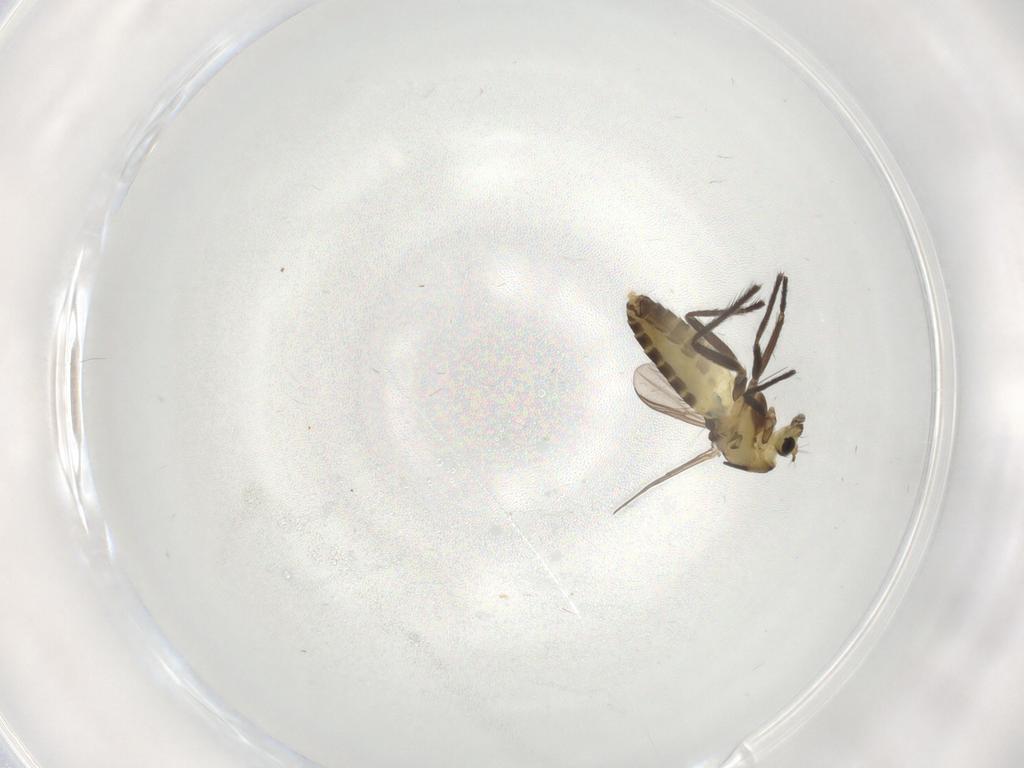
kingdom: Animalia
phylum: Arthropoda
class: Insecta
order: Diptera
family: Chironomidae
